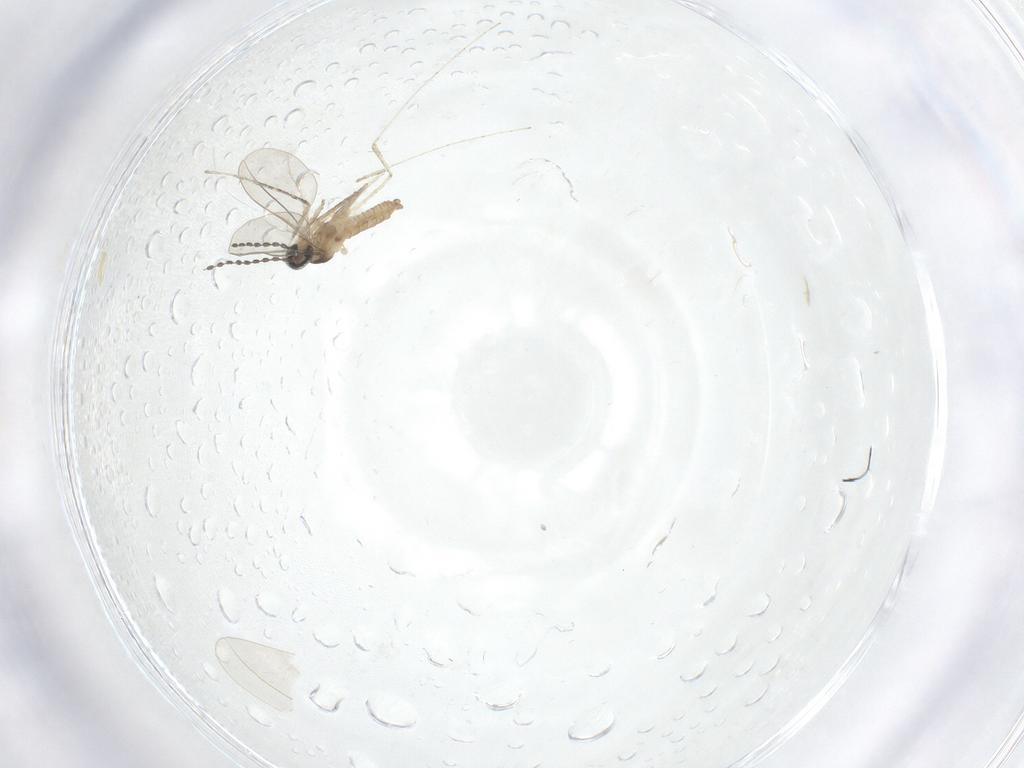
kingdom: Animalia
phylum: Arthropoda
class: Insecta
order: Diptera
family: Cecidomyiidae
